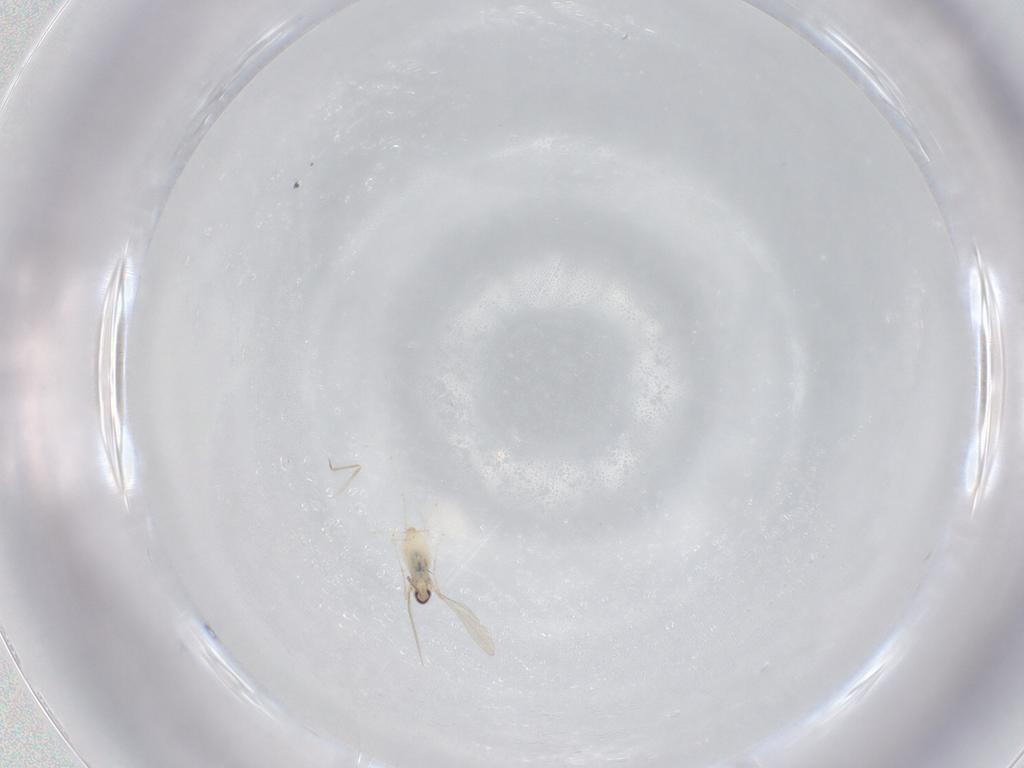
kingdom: Animalia
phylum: Arthropoda
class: Insecta
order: Diptera
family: Cecidomyiidae
